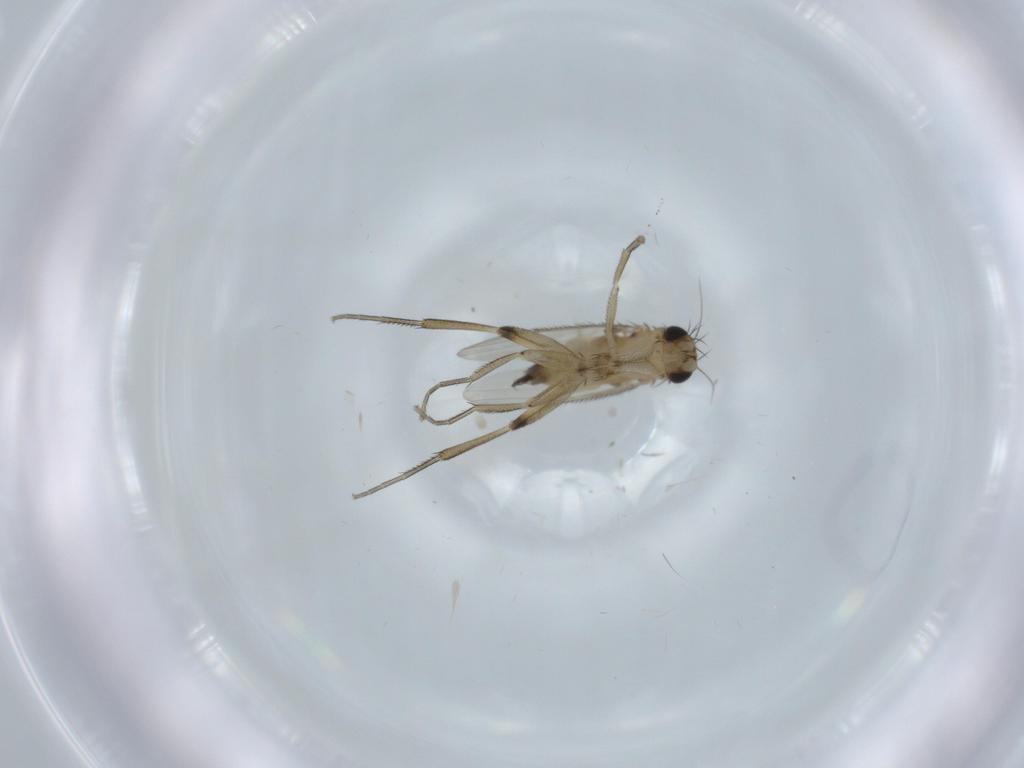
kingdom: Animalia
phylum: Arthropoda
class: Insecta
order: Diptera
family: Phoridae
